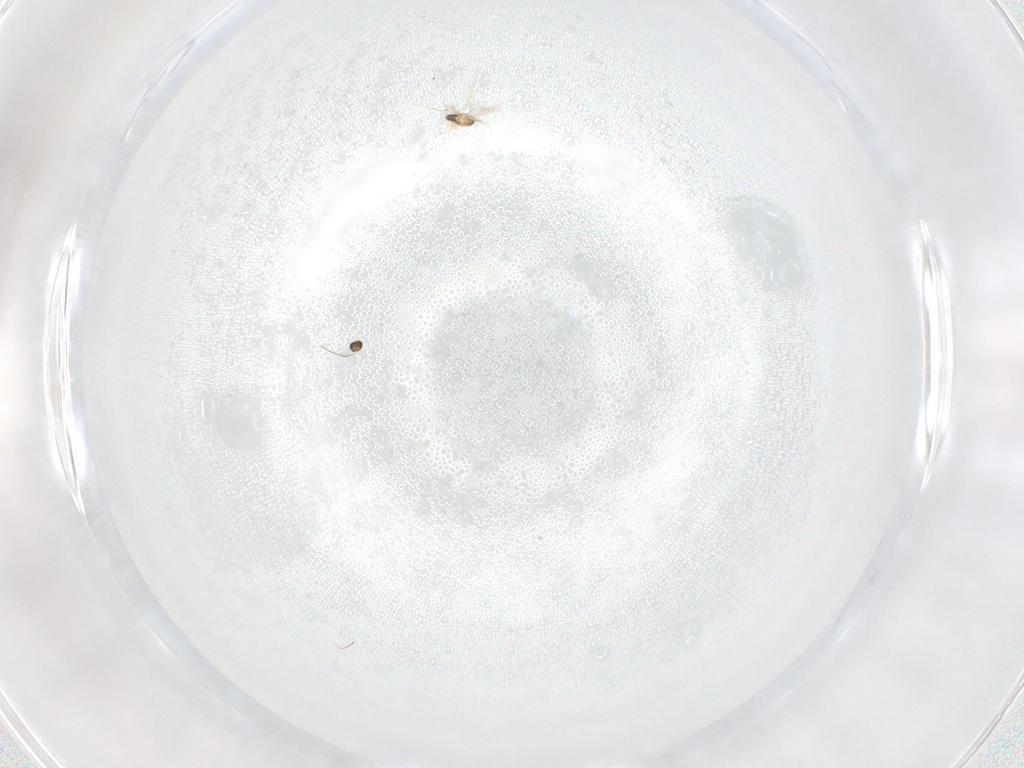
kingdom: Animalia
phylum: Arthropoda
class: Insecta
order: Hymenoptera
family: Mymaridae
